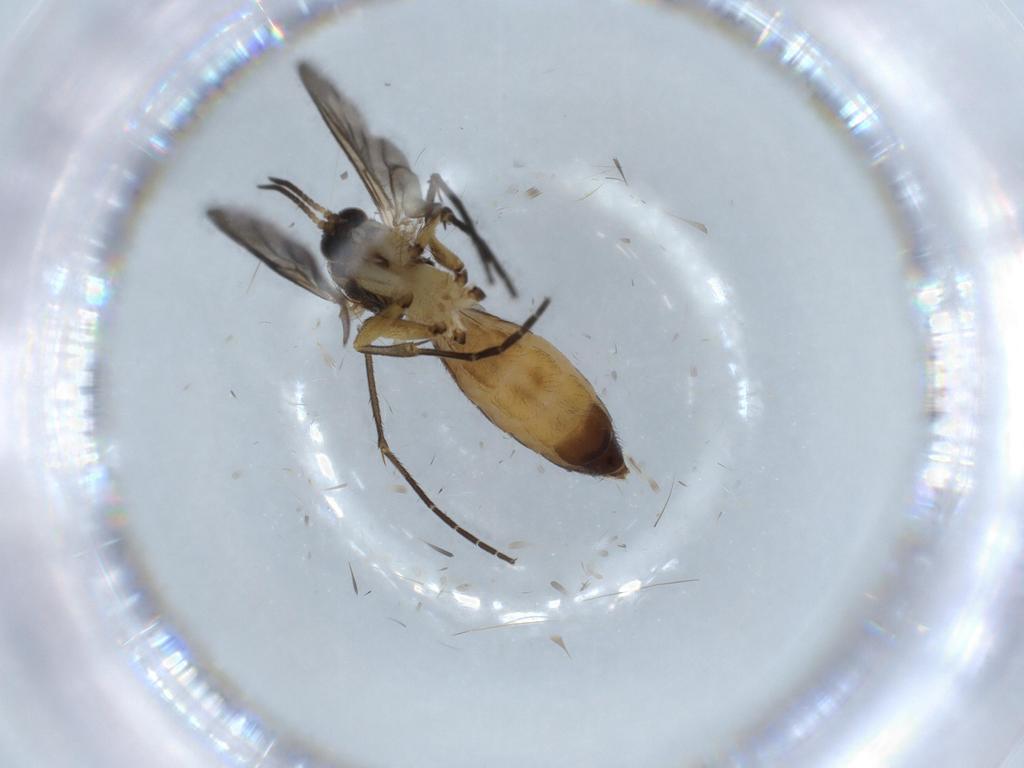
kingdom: Animalia
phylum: Arthropoda
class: Insecta
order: Diptera
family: Mycetophilidae
